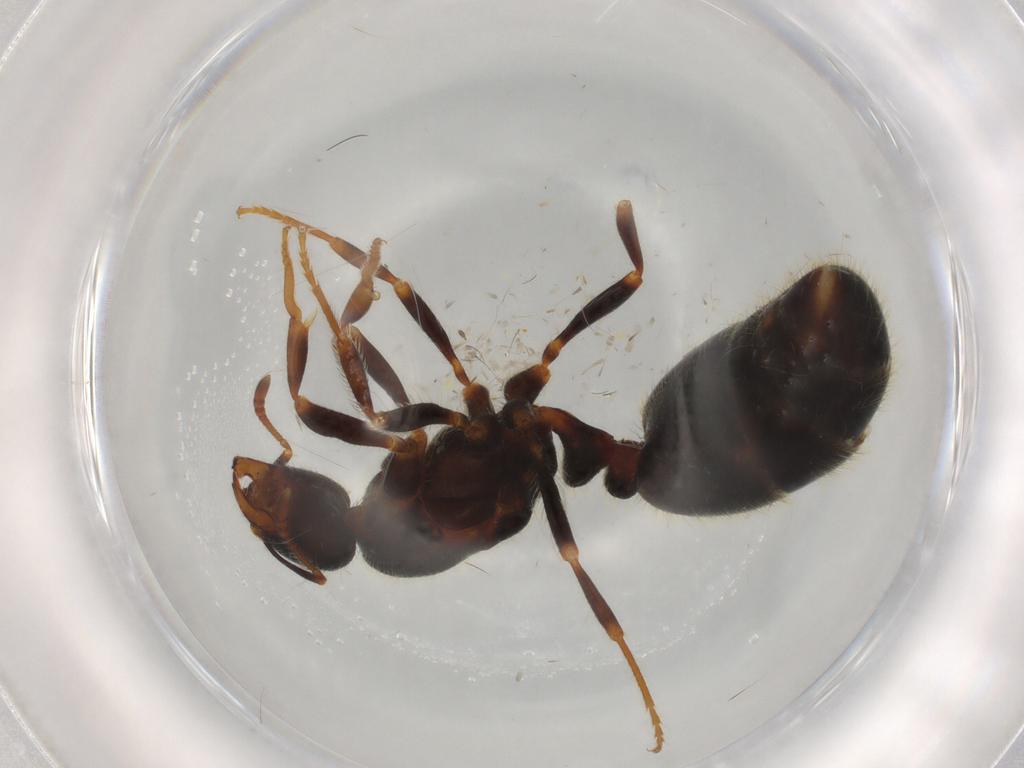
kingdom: Animalia
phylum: Arthropoda
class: Insecta
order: Hymenoptera
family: Formicidae
